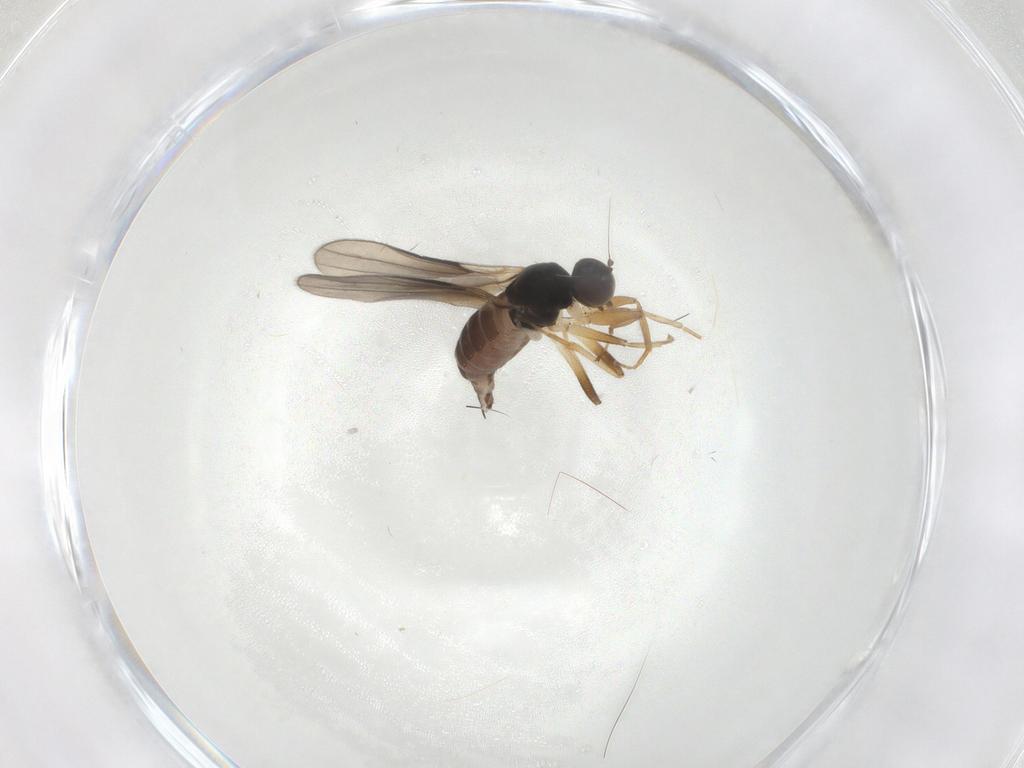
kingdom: Animalia
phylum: Arthropoda
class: Insecta
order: Diptera
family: Hybotidae
